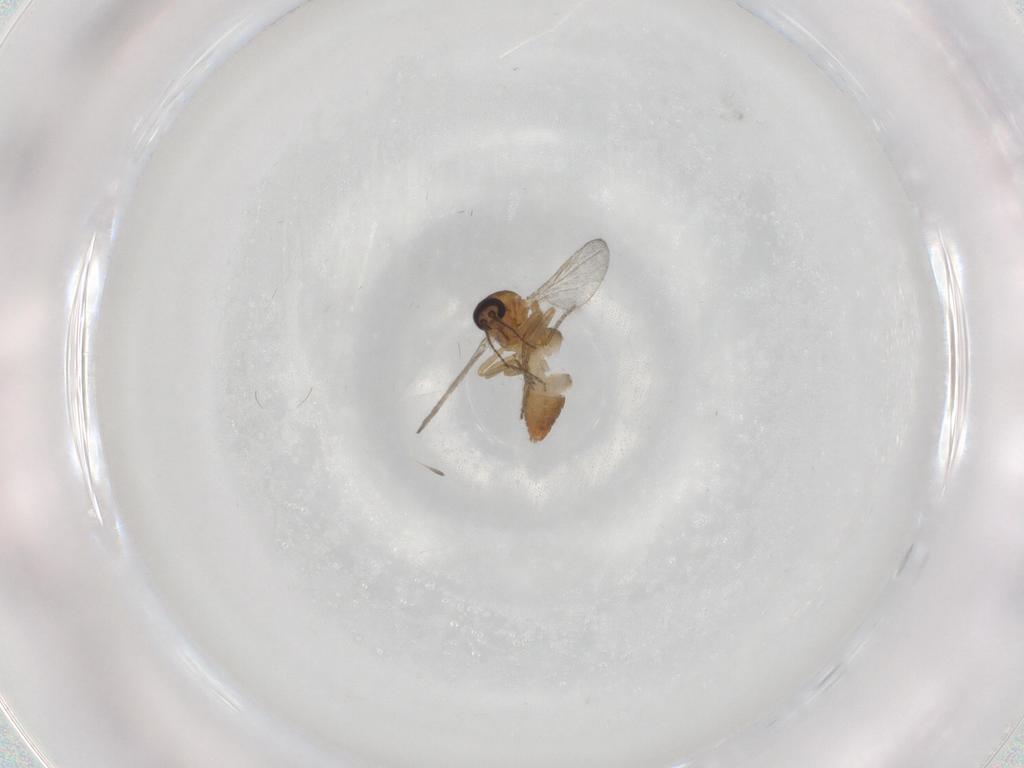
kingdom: Animalia
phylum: Arthropoda
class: Insecta
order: Diptera
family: Ceratopogonidae
